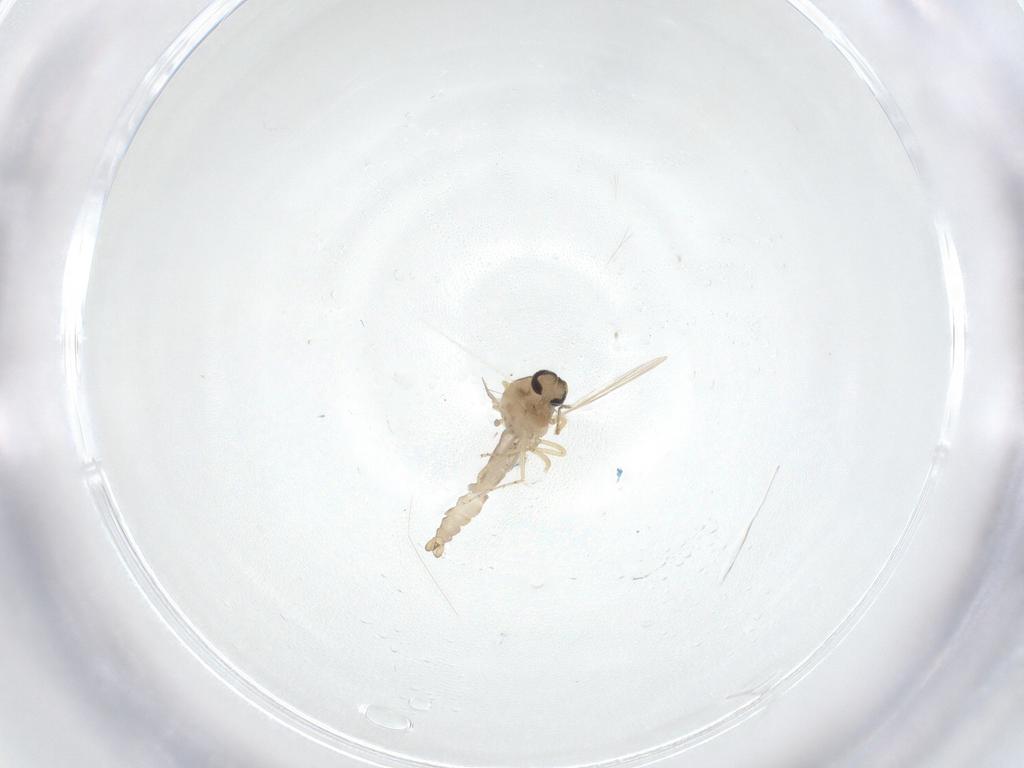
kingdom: Animalia
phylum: Arthropoda
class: Insecta
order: Diptera
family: Ceratopogonidae
